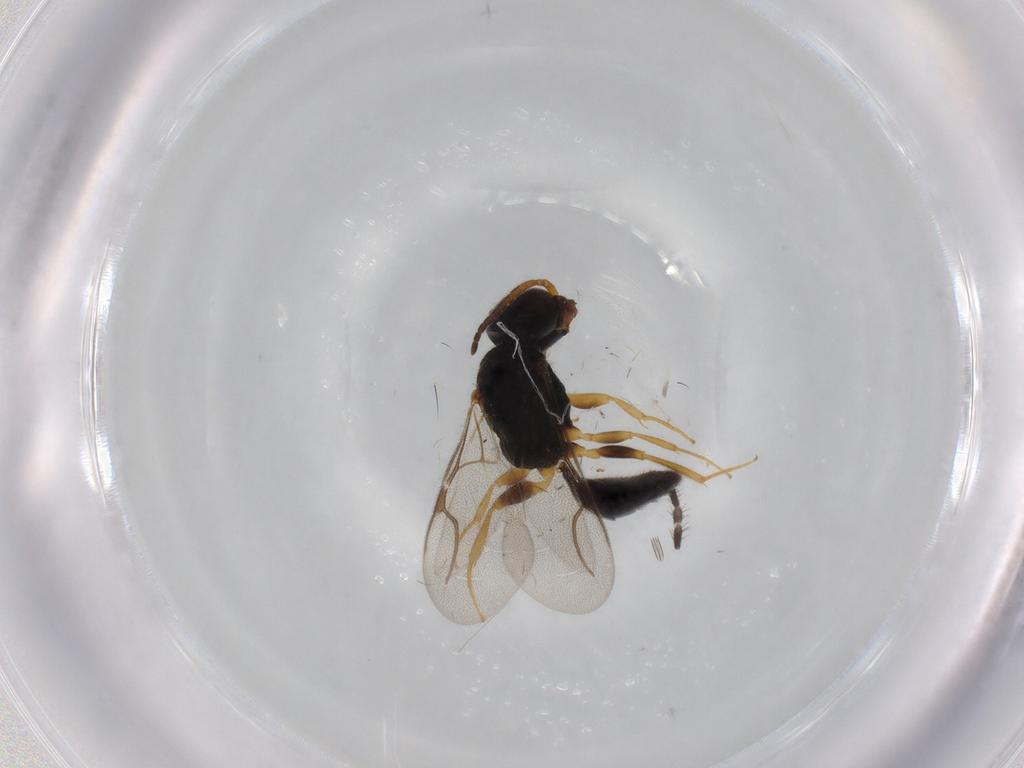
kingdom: Animalia
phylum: Arthropoda
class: Insecta
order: Hymenoptera
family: Bethylidae
